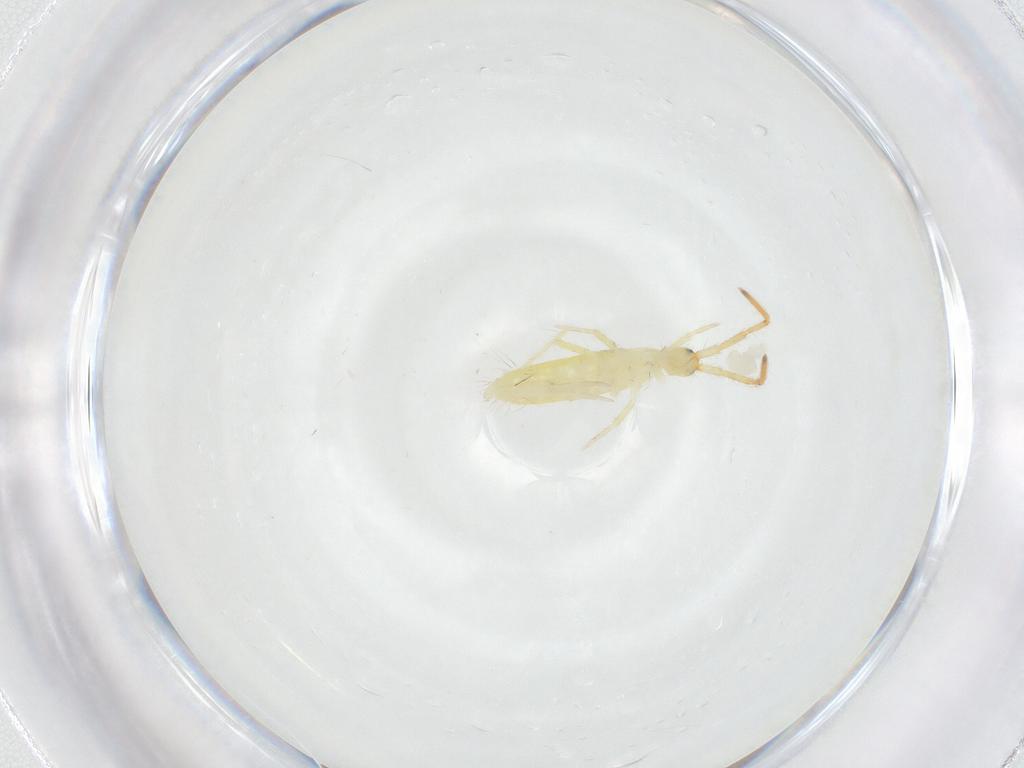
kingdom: Animalia
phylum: Arthropoda
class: Collembola
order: Entomobryomorpha
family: Entomobryidae
